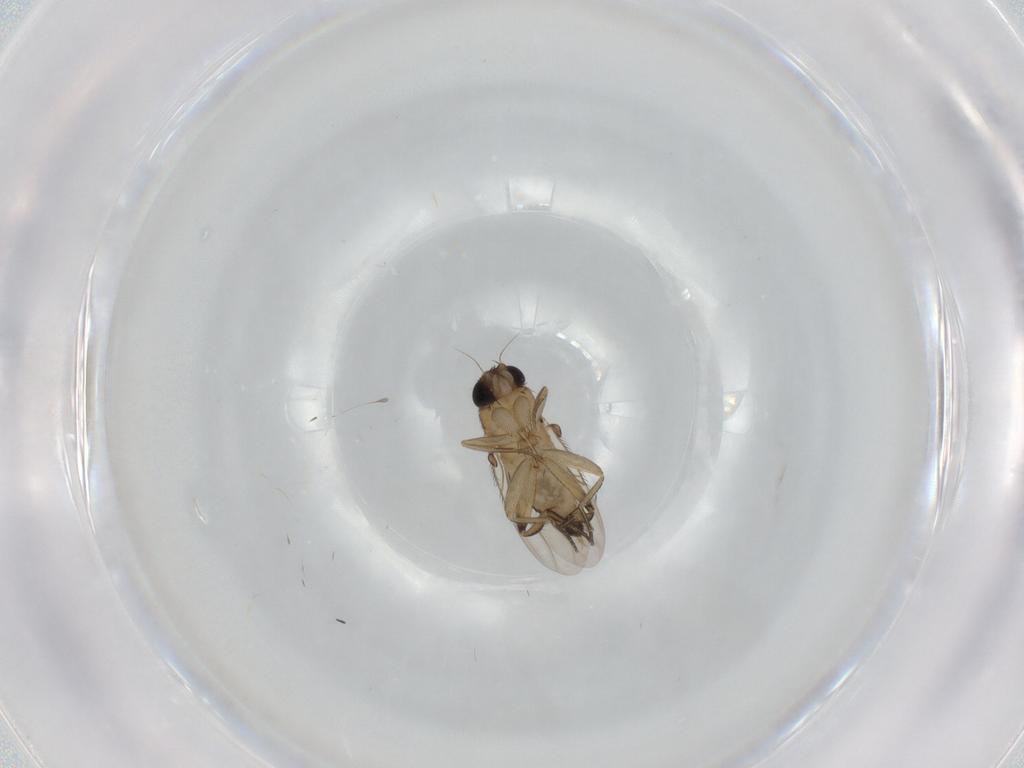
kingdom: Animalia
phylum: Arthropoda
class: Insecta
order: Diptera
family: Phoridae
